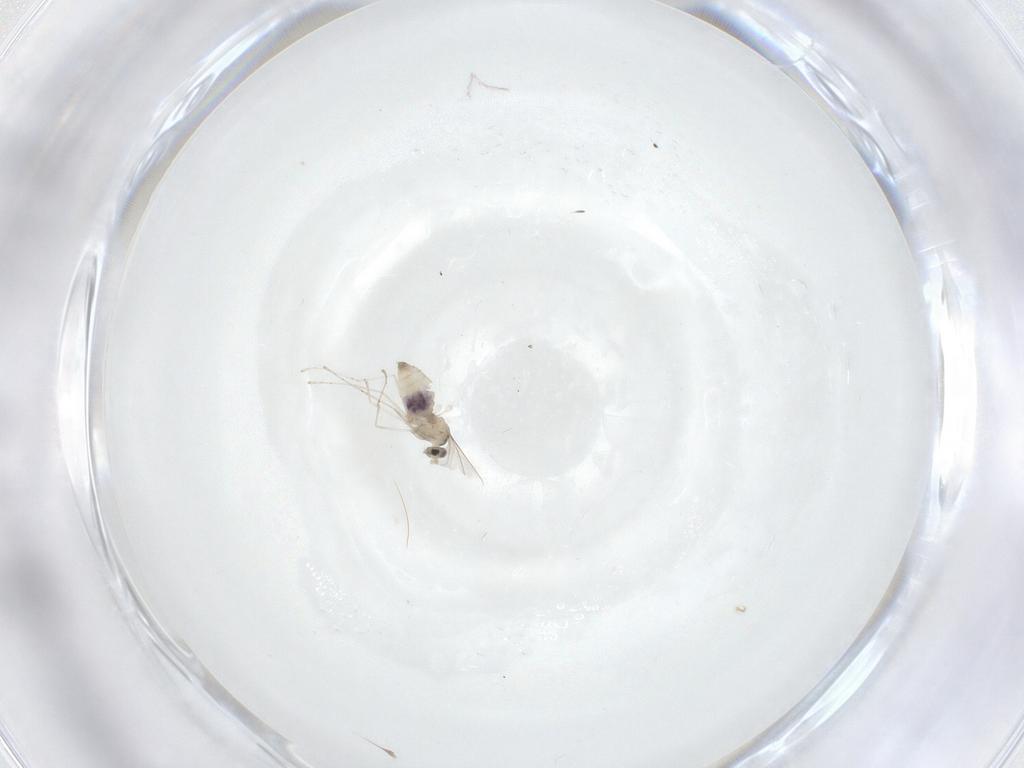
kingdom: Animalia
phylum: Arthropoda
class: Insecta
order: Diptera
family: Cecidomyiidae
